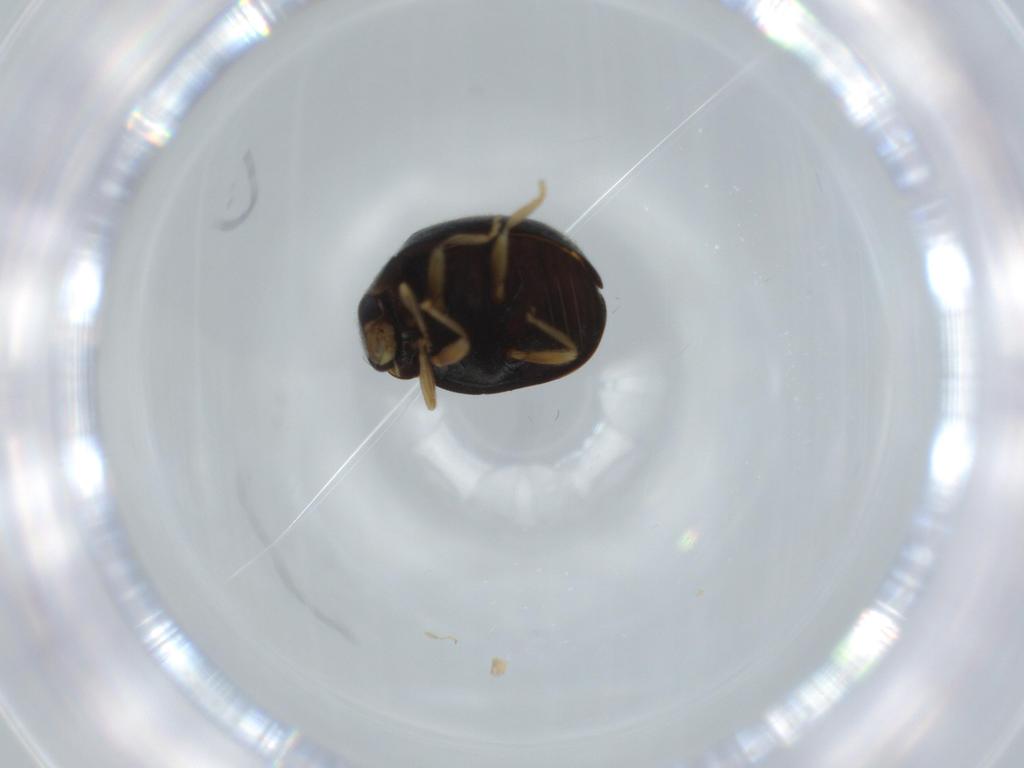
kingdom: Animalia
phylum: Arthropoda
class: Insecta
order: Coleoptera
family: Coccinellidae
